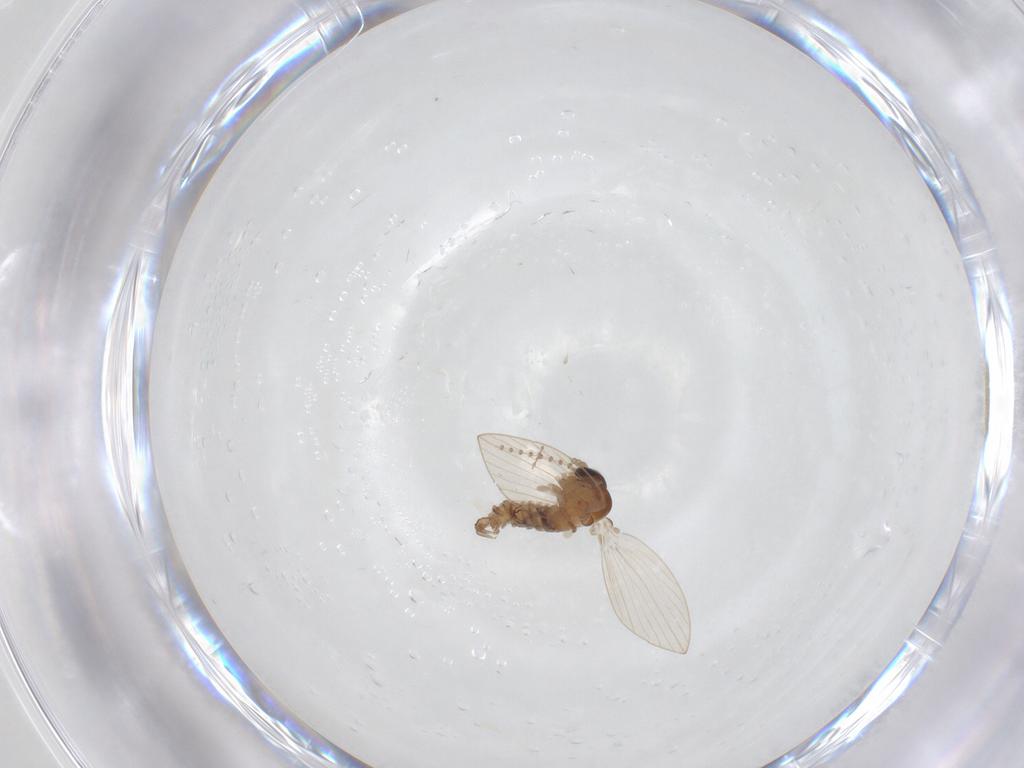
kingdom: Animalia
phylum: Arthropoda
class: Insecta
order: Diptera
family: Psychodidae
